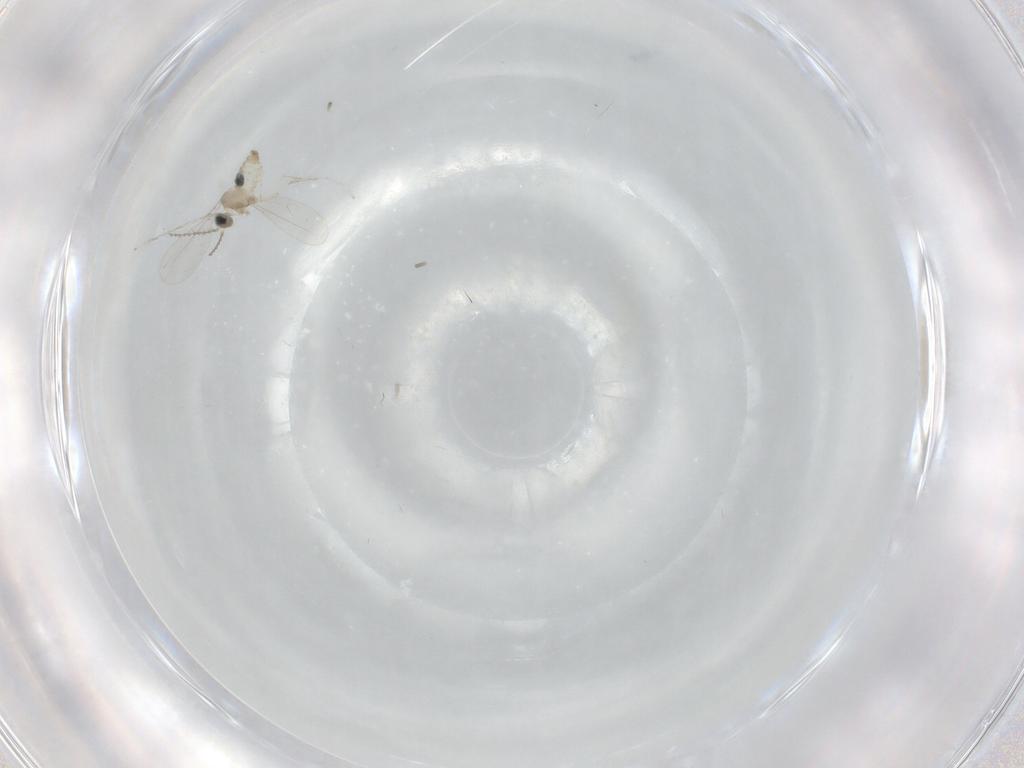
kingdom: Animalia
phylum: Arthropoda
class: Insecta
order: Diptera
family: Cecidomyiidae
